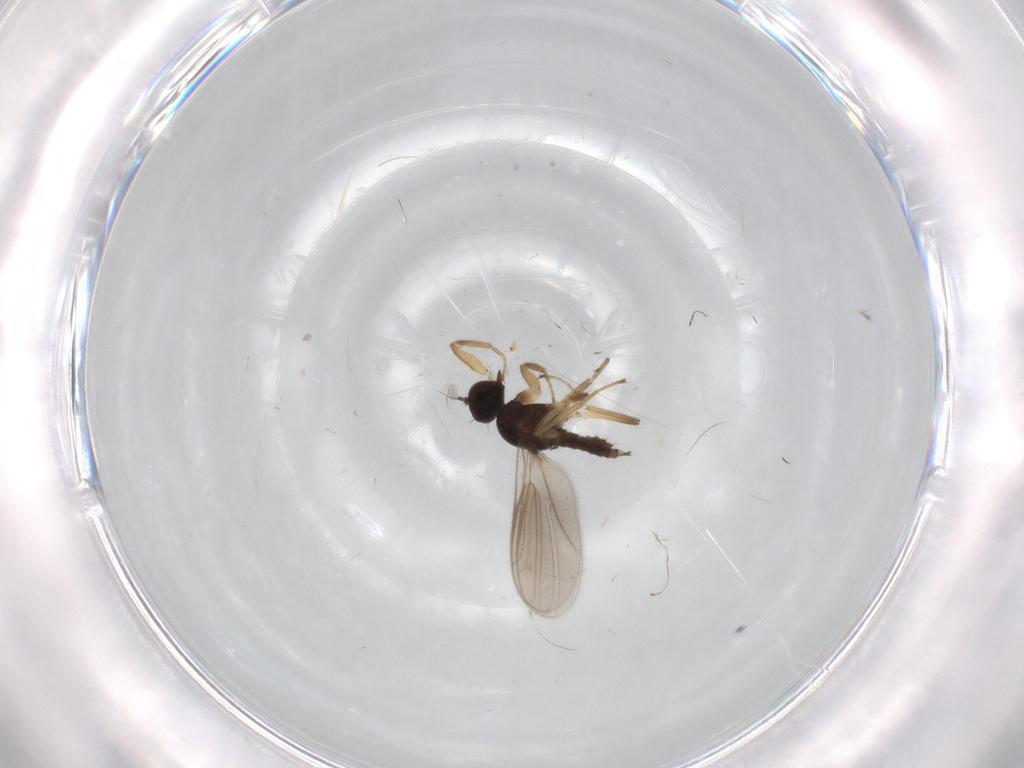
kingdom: Animalia
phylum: Arthropoda
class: Insecta
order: Diptera
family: Hybotidae
